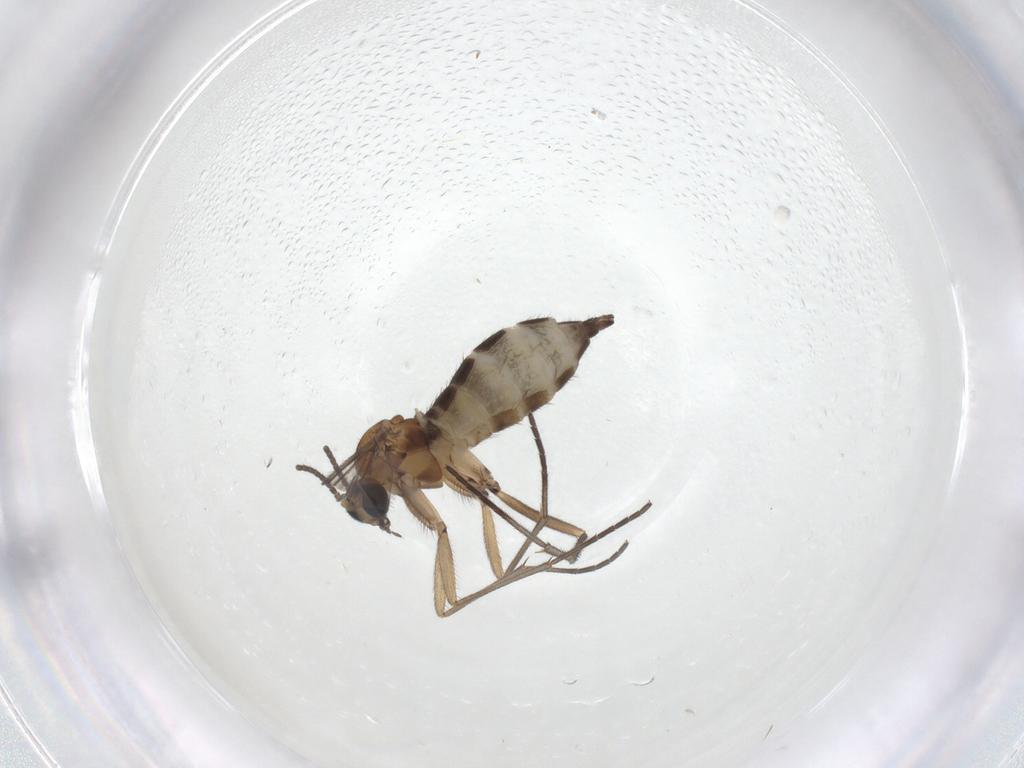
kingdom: Animalia
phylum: Arthropoda
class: Insecta
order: Diptera
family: Sciaridae
